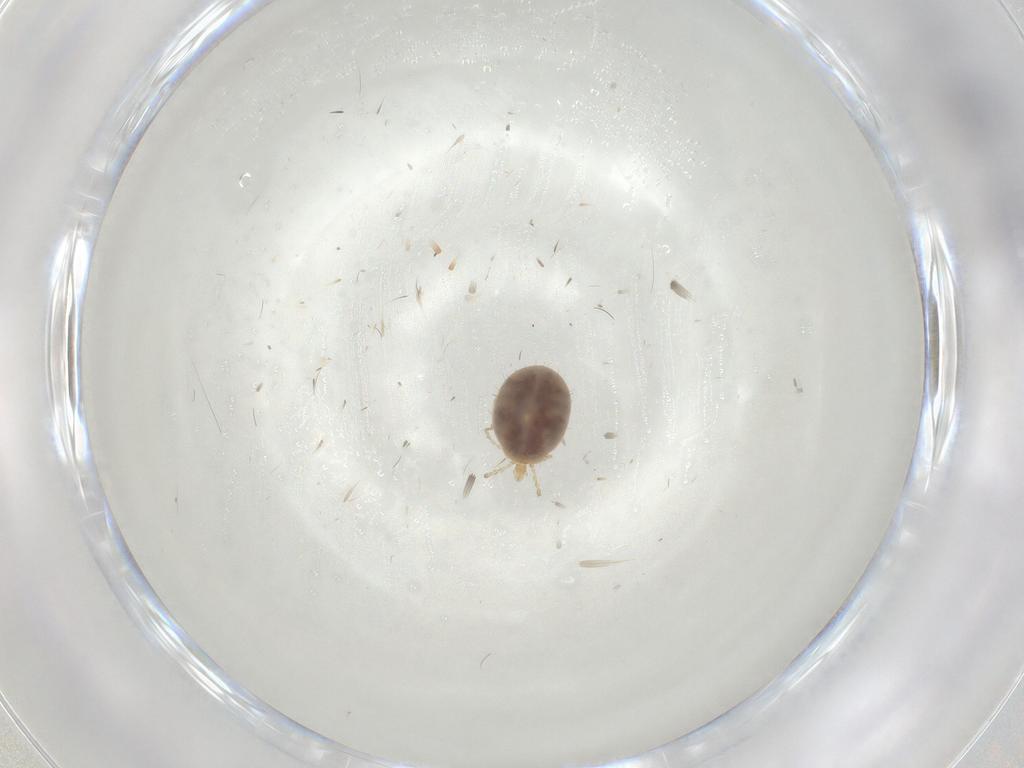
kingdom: Animalia
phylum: Arthropoda
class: Arachnida
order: Trombidiformes
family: Erythraeidae
